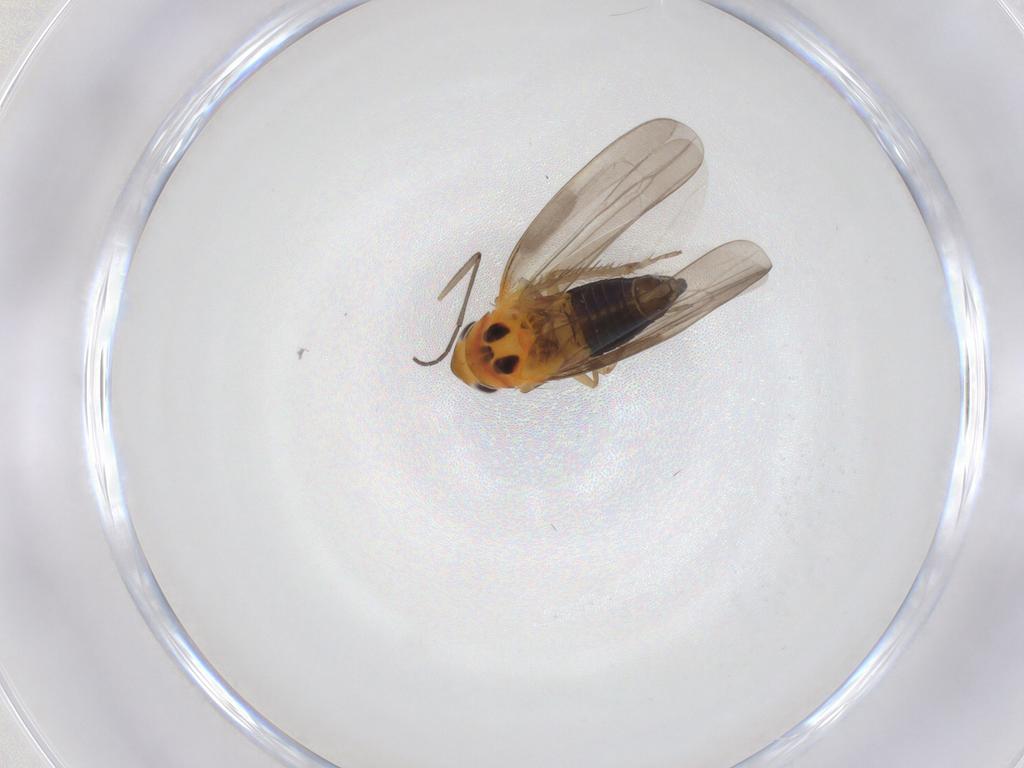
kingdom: Animalia
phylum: Arthropoda
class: Insecta
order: Hemiptera
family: Cicadellidae
